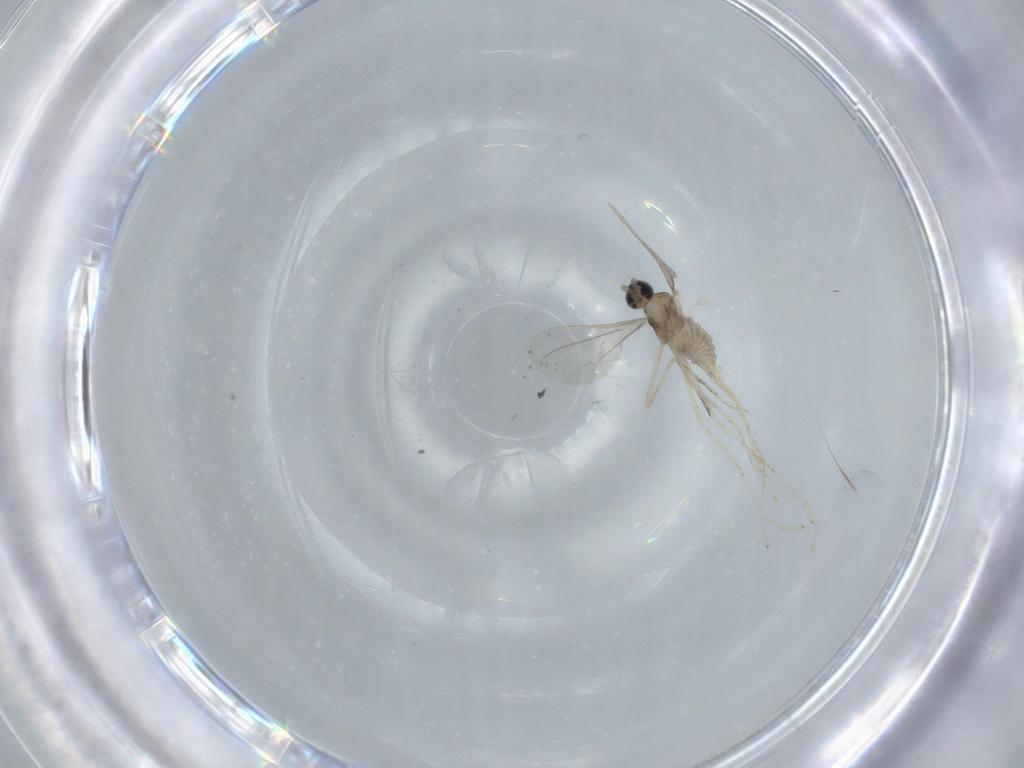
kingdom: Animalia
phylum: Arthropoda
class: Insecta
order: Diptera
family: Cecidomyiidae
